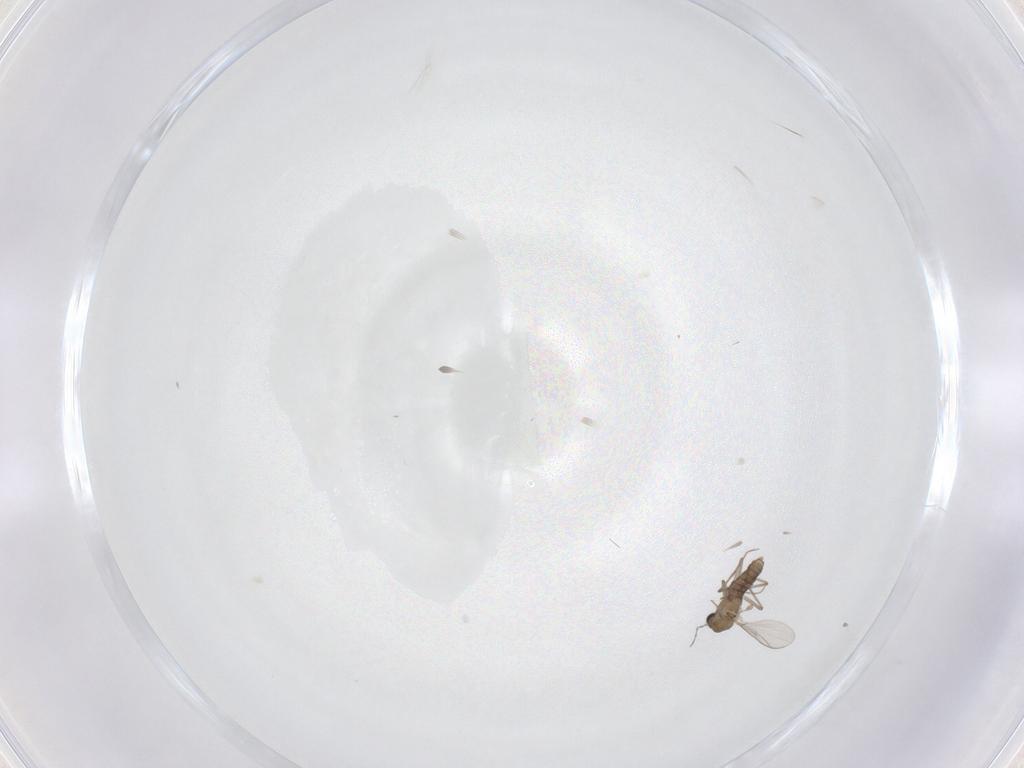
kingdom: Animalia
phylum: Arthropoda
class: Insecta
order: Diptera
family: Chironomidae
